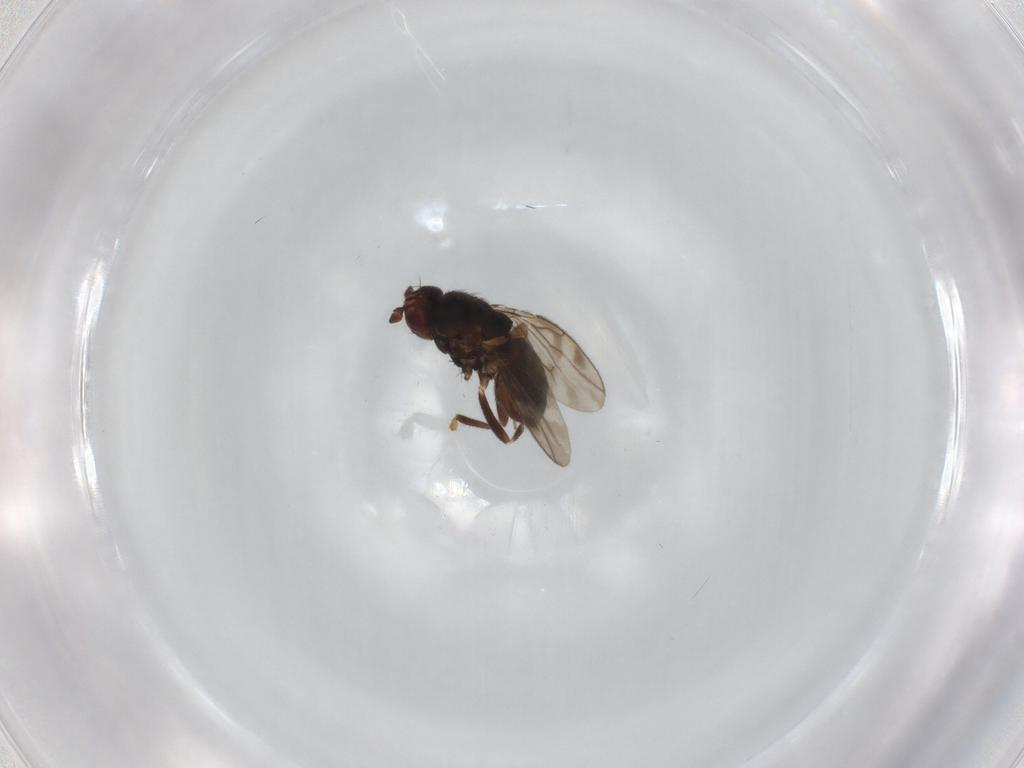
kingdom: Animalia
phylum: Arthropoda
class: Insecta
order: Diptera
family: Sphaeroceridae
